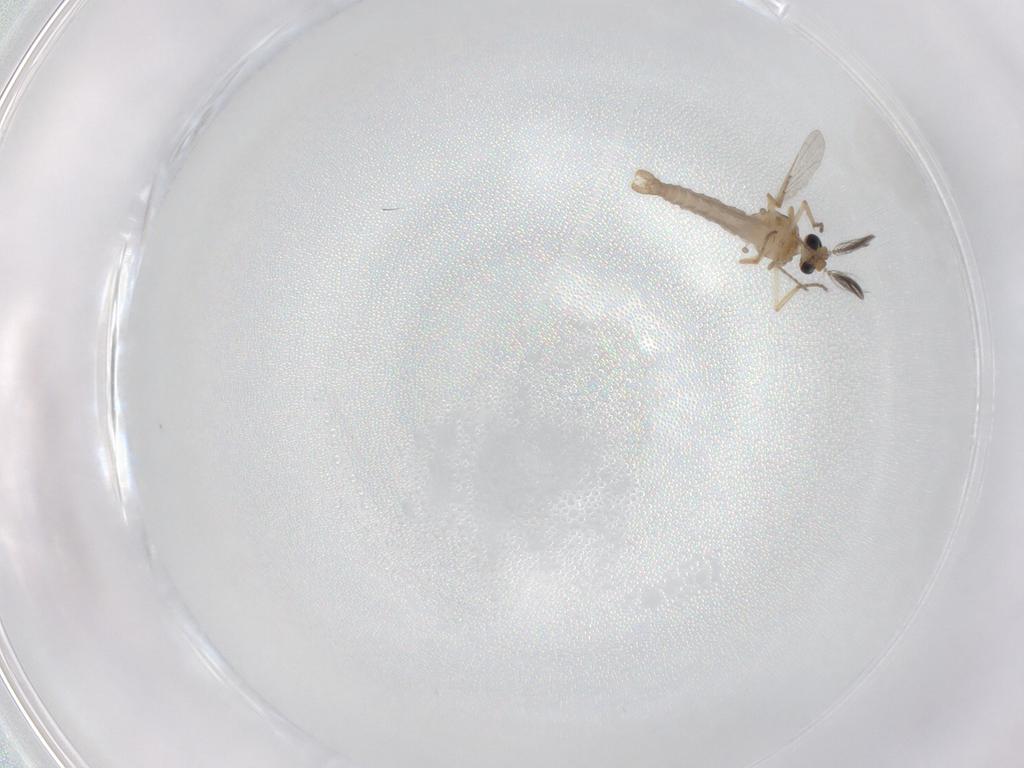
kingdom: Animalia
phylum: Arthropoda
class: Insecta
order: Diptera
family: Ceratopogonidae
